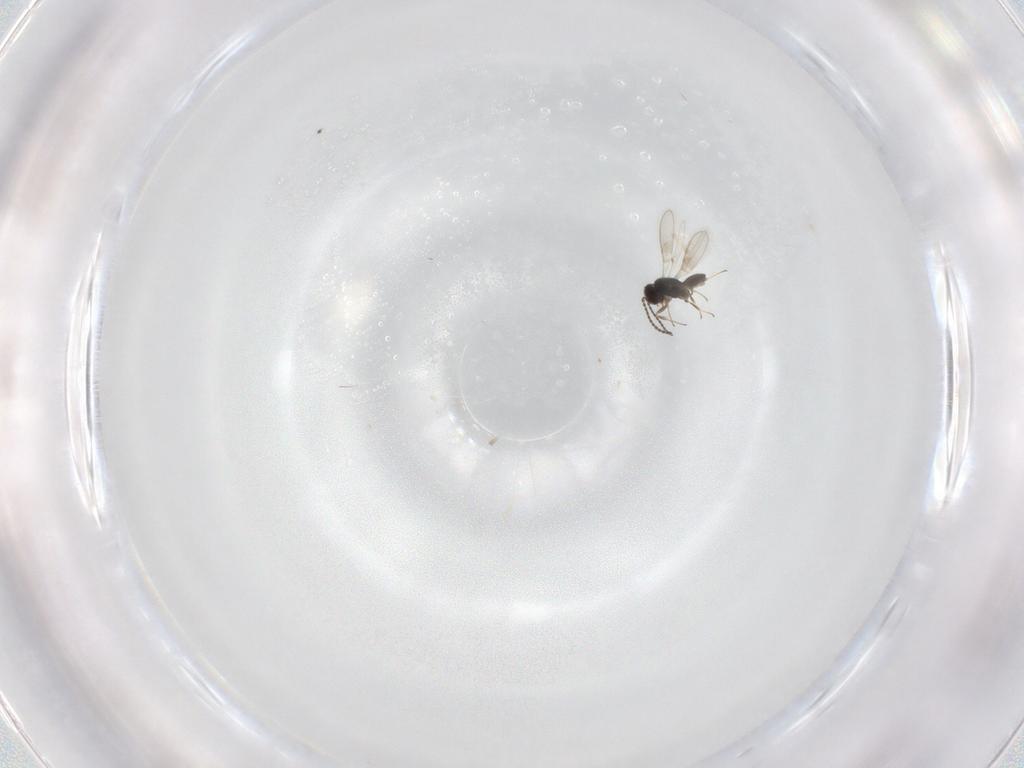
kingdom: Animalia
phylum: Arthropoda
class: Insecta
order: Hymenoptera
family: Scelionidae
